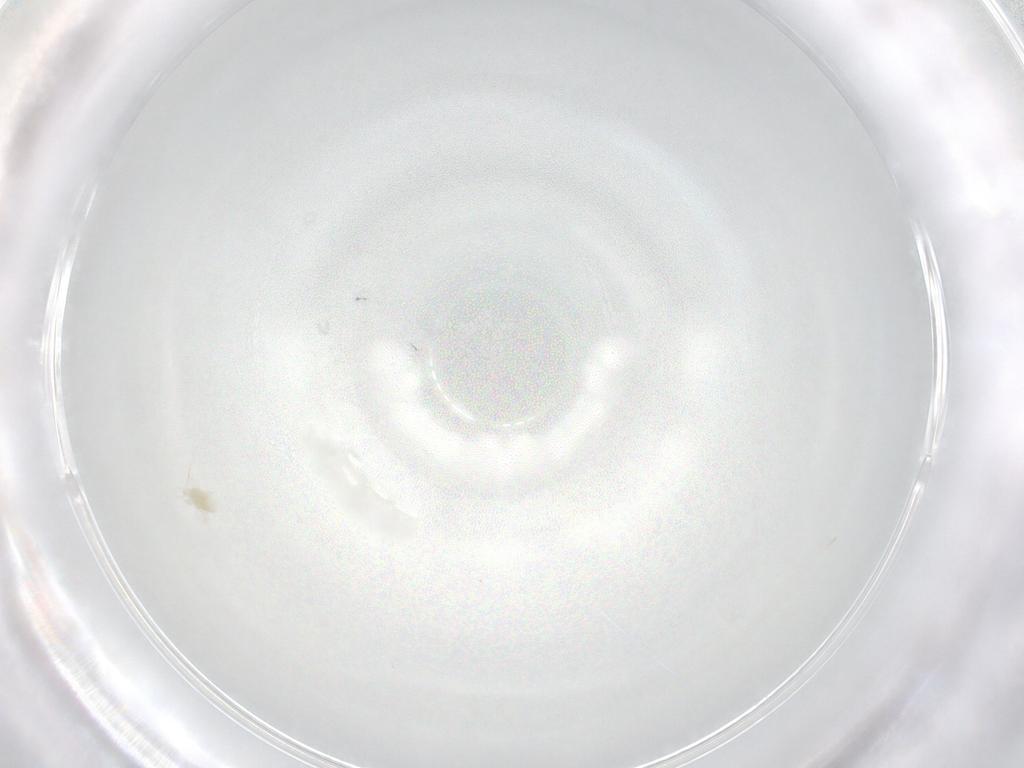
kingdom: Animalia
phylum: Arthropoda
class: Arachnida
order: Trombidiformes
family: Eupodidae
